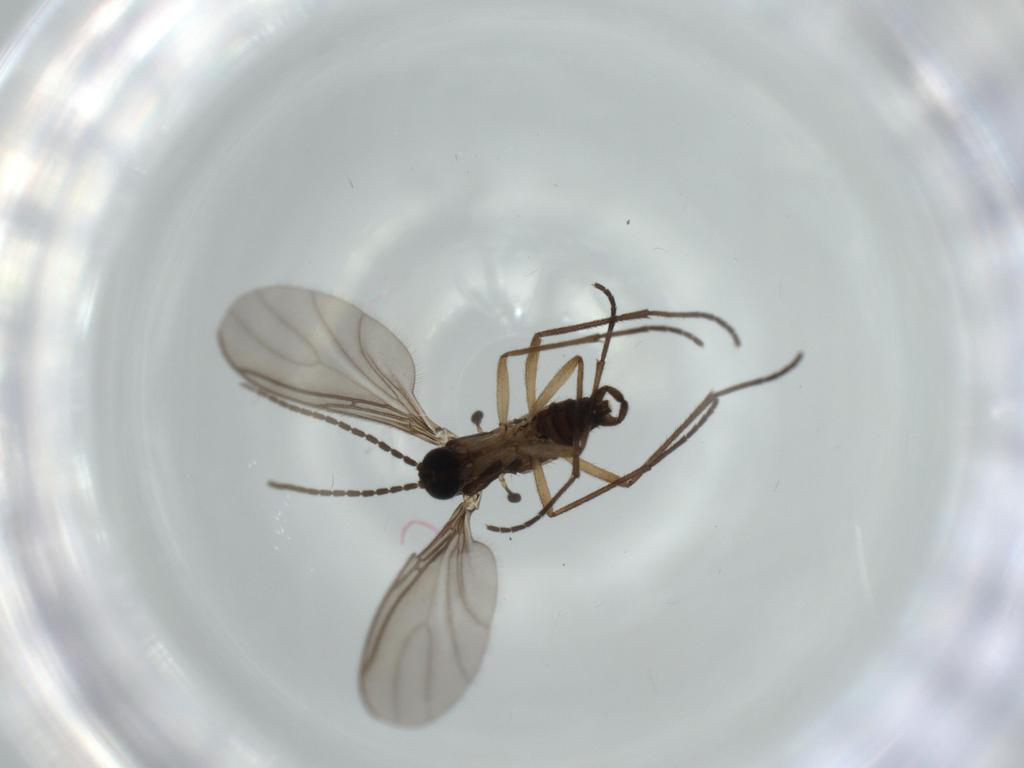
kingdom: Animalia
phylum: Arthropoda
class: Insecta
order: Diptera
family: Sciaridae
